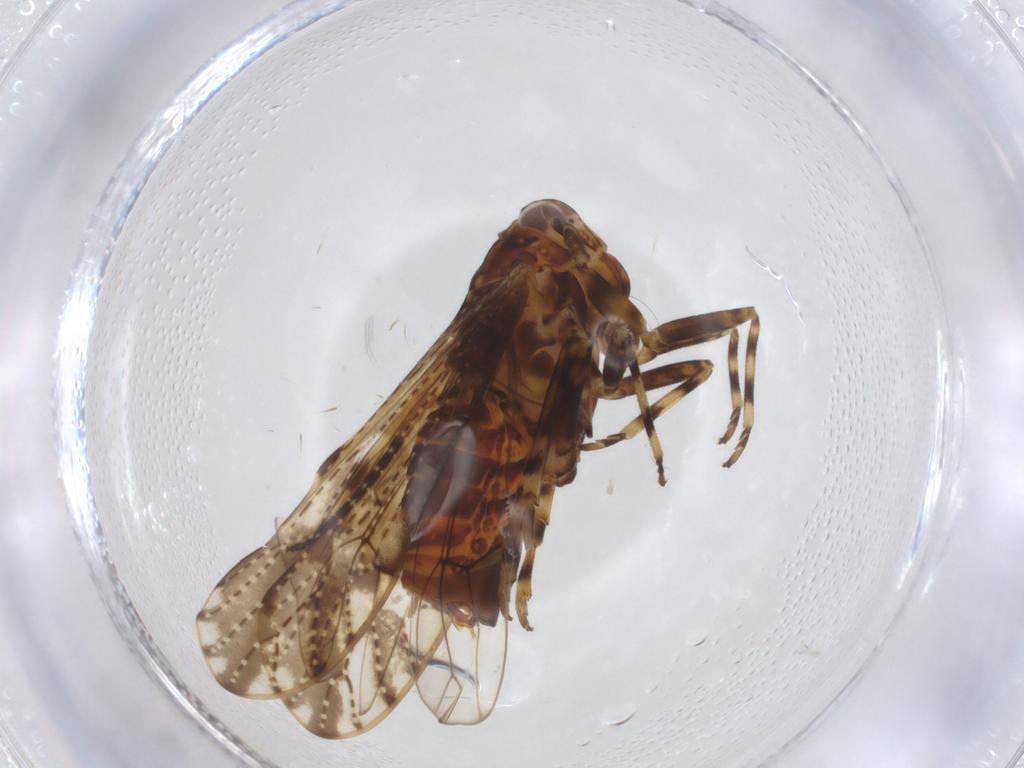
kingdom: Animalia
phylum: Arthropoda
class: Insecta
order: Hemiptera
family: Delphacidae
